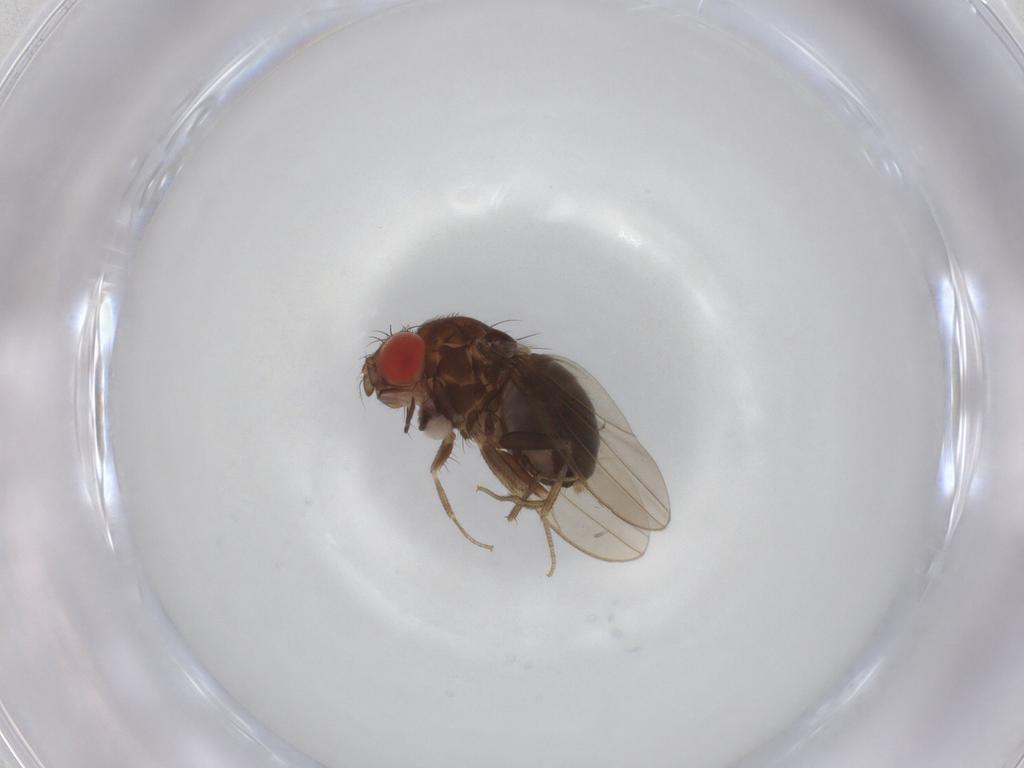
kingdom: Animalia
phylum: Arthropoda
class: Insecta
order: Diptera
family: Drosophilidae
